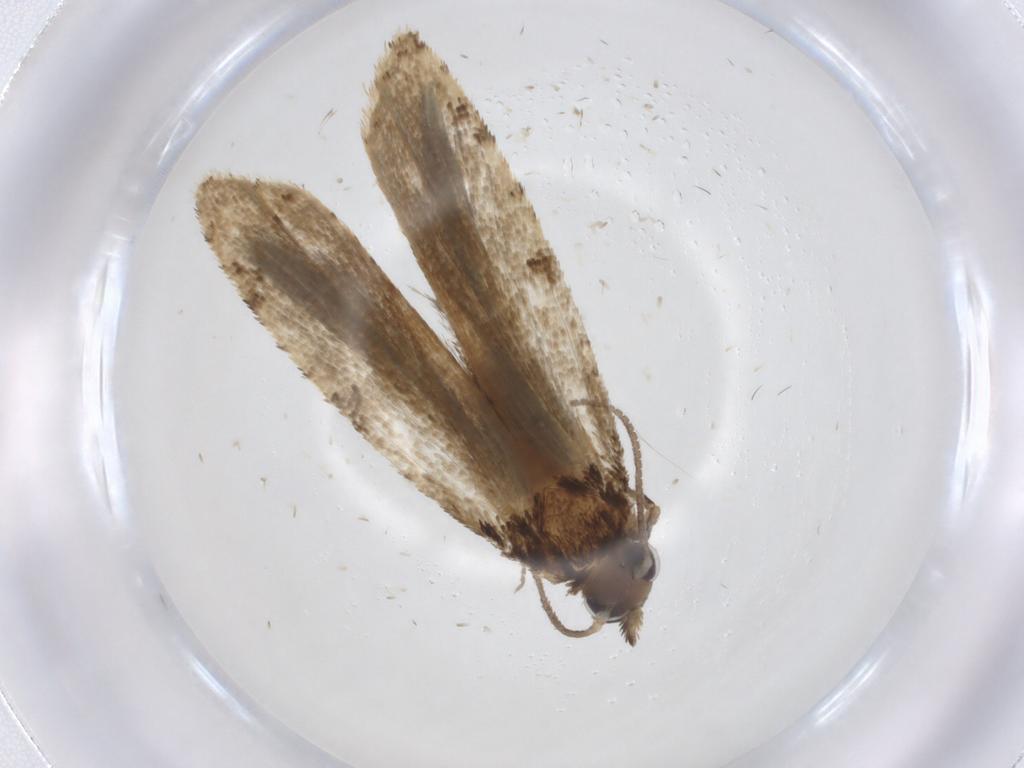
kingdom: Animalia
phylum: Arthropoda
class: Insecta
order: Lepidoptera
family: Tortricidae
